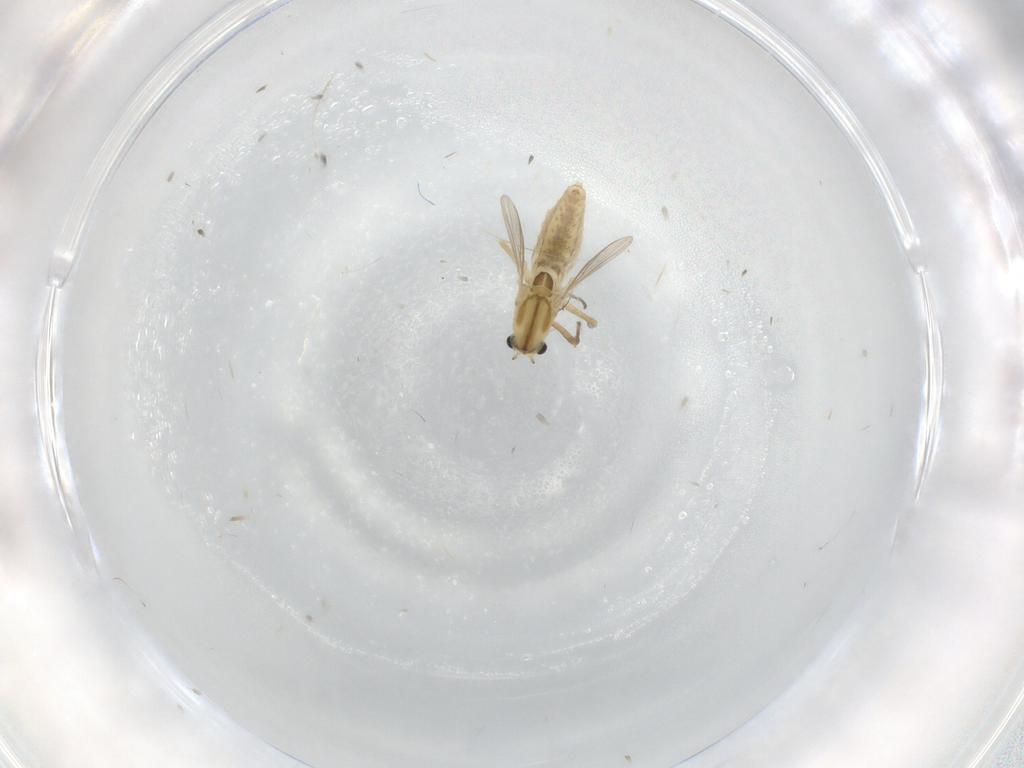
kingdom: Animalia
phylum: Arthropoda
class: Insecta
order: Diptera
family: Chironomidae
